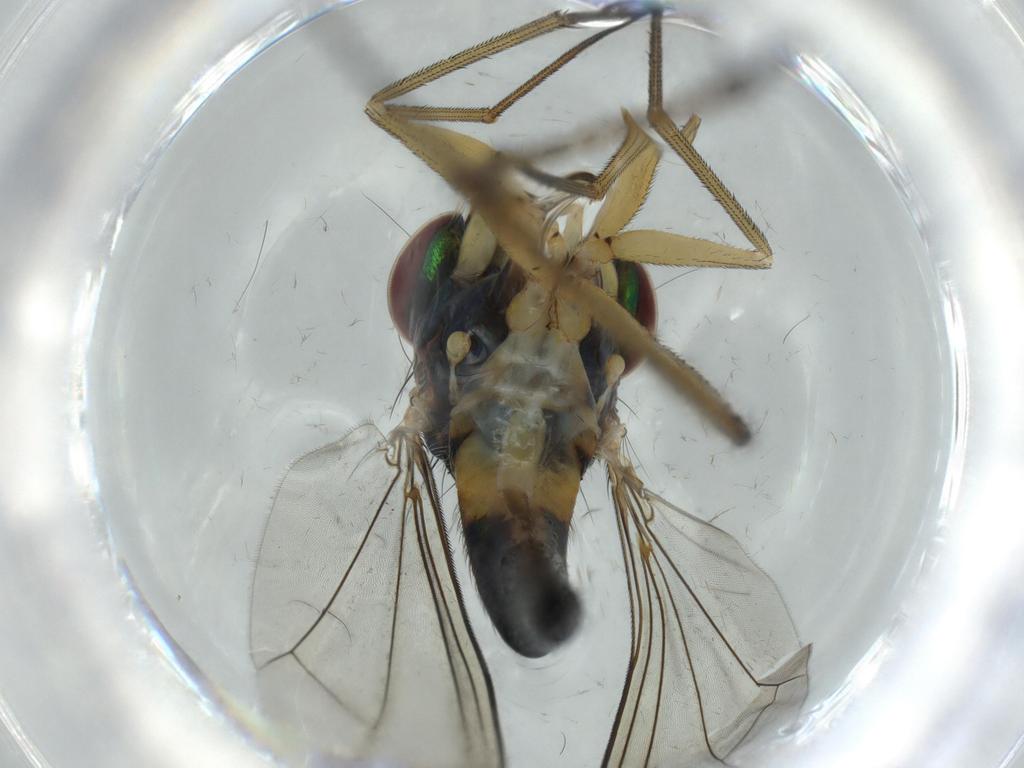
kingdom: Animalia
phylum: Arthropoda
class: Insecta
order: Diptera
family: Dolichopodidae
